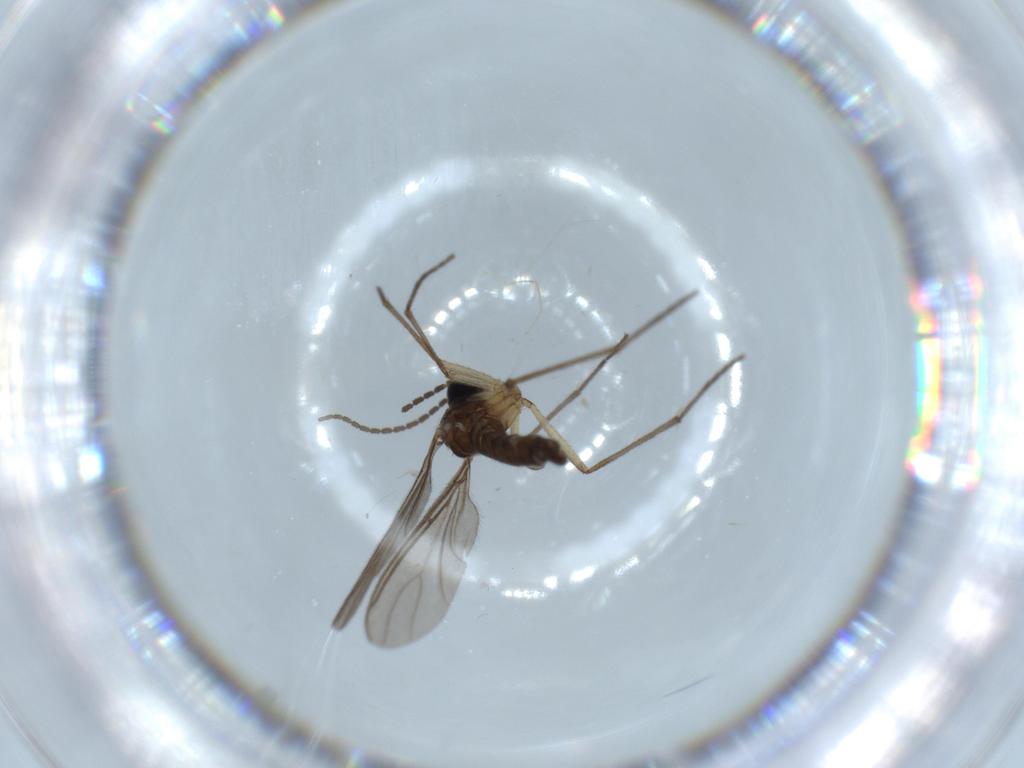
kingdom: Animalia
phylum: Arthropoda
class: Insecta
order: Diptera
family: Sciaridae
